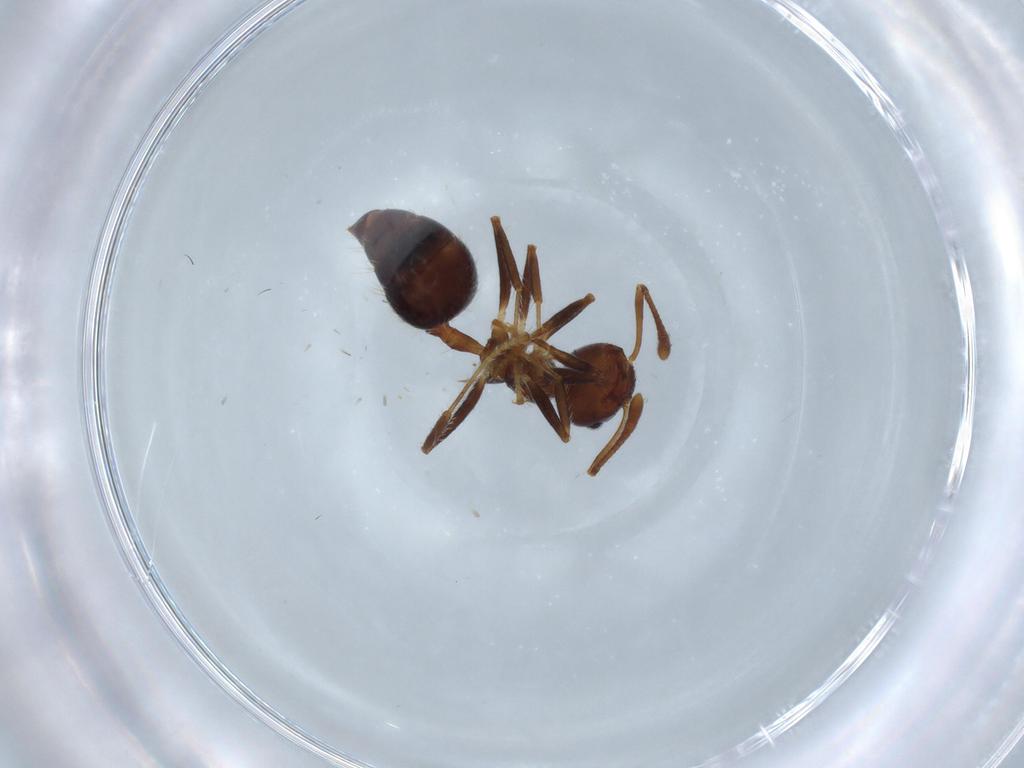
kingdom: Animalia
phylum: Arthropoda
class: Insecta
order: Hymenoptera
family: Formicidae
